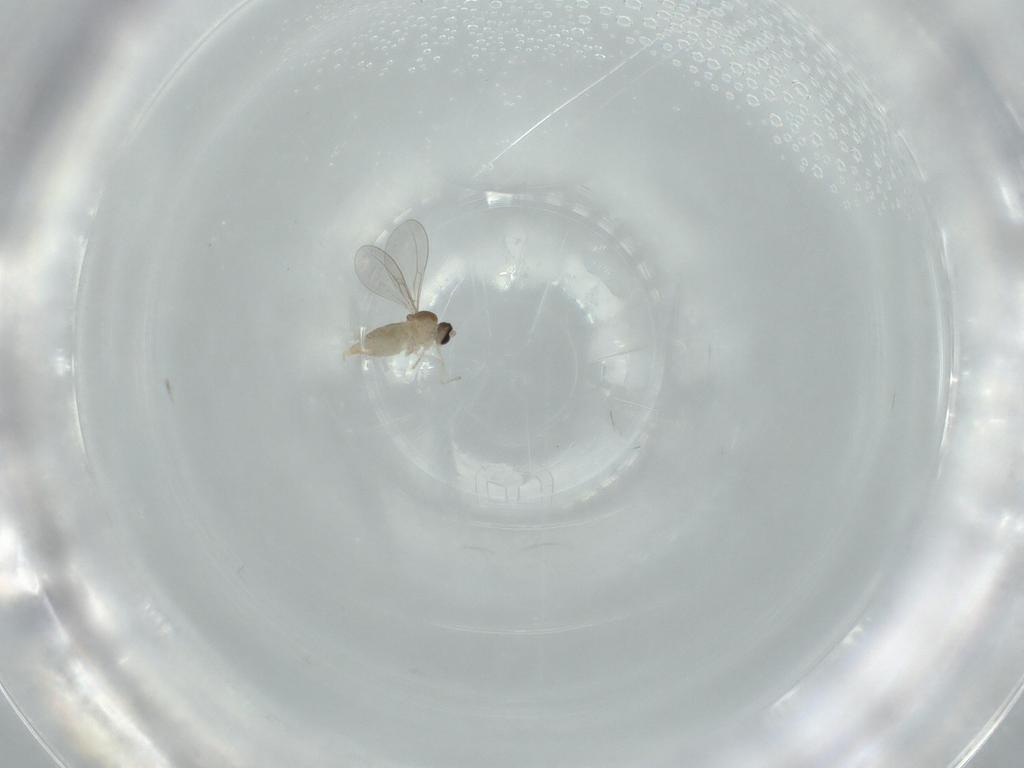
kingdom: Animalia
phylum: Arthropoda
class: Insecta
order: Diptera
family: Cecidomyiidae
